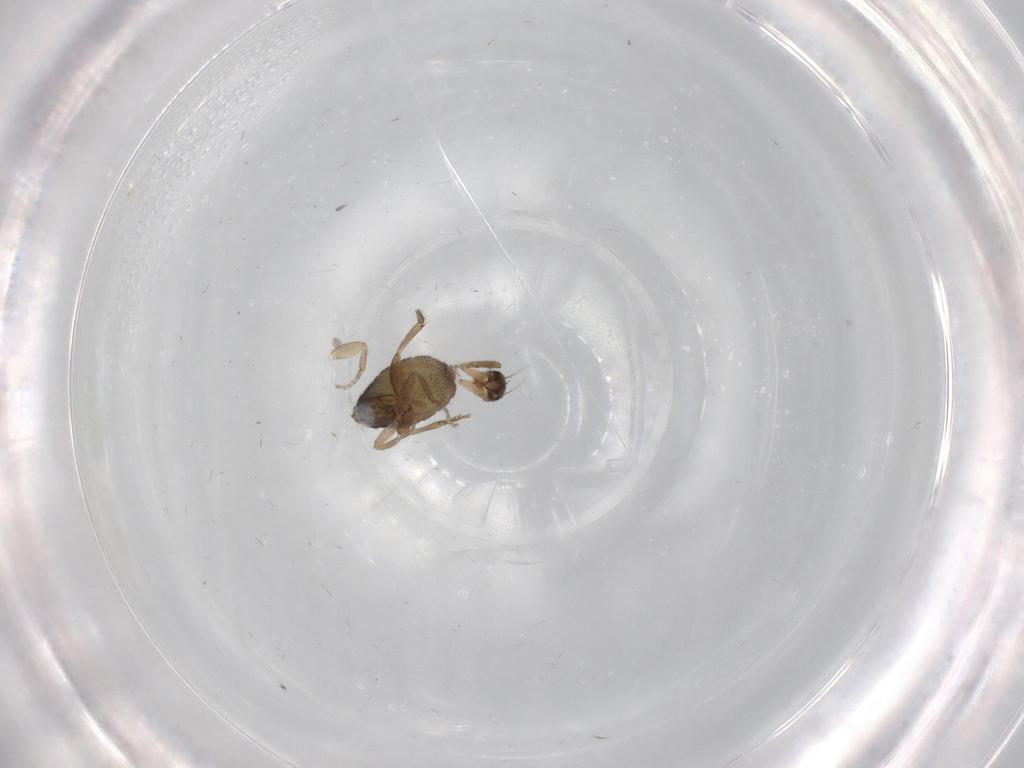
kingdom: Animalia
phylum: Arthropoda
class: Insecta
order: Diptera
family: Phoridae
